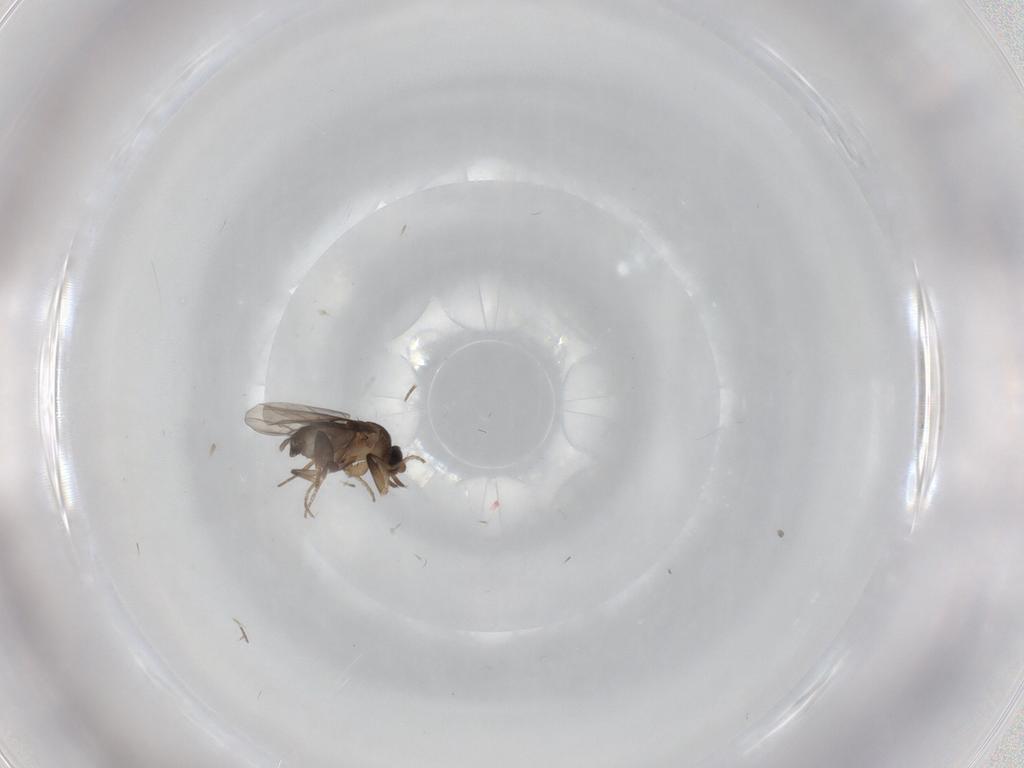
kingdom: Animalia
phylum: Arthropoda
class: Insecta
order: Diptera
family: Phoridae
